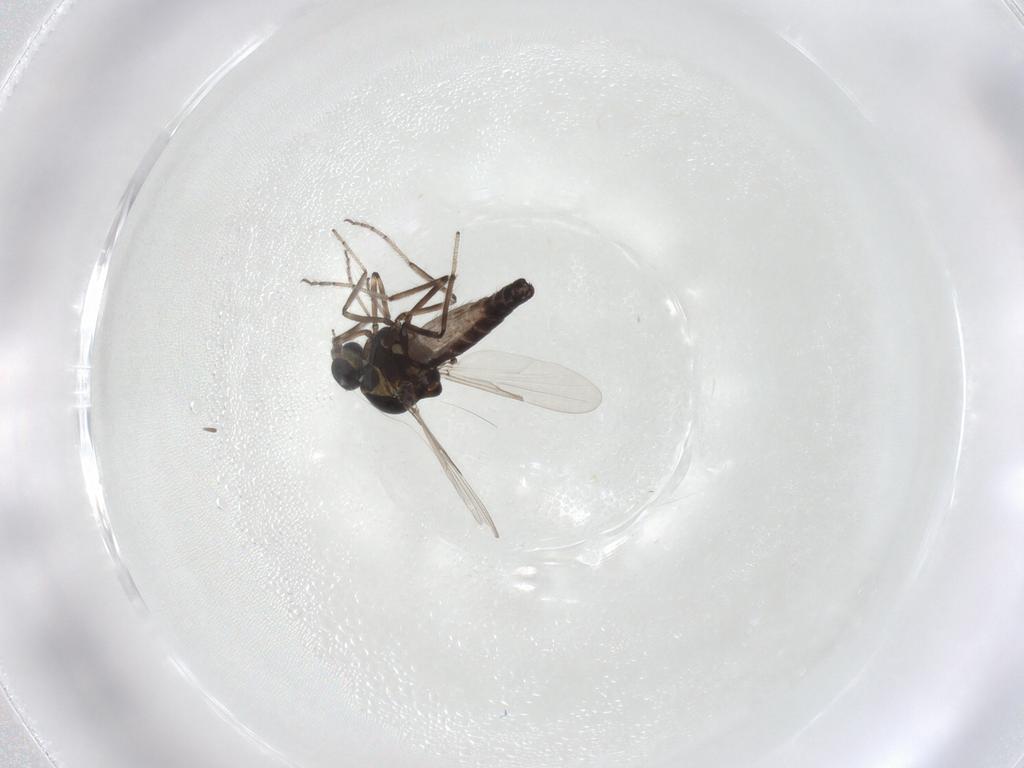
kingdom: Animalia
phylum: Arthropoda
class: Insecta
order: Diptera
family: Ceratopogonidae
